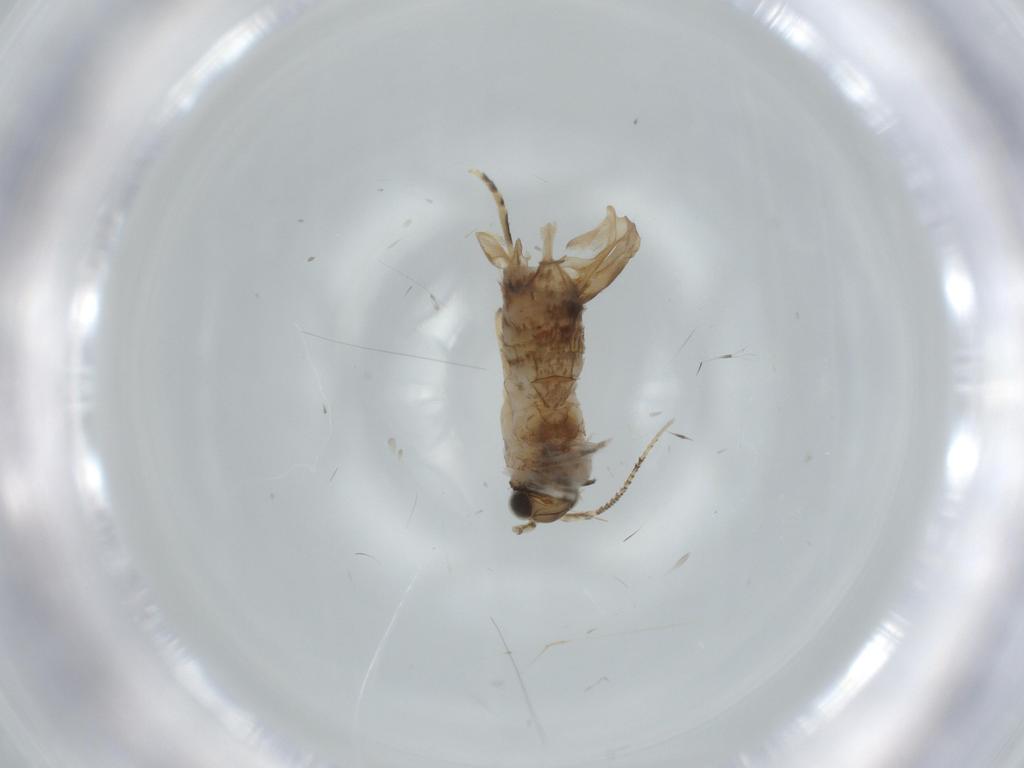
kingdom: Animalia
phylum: Arthropoda
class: Insecta
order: Lepidoptera
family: Tineidae
